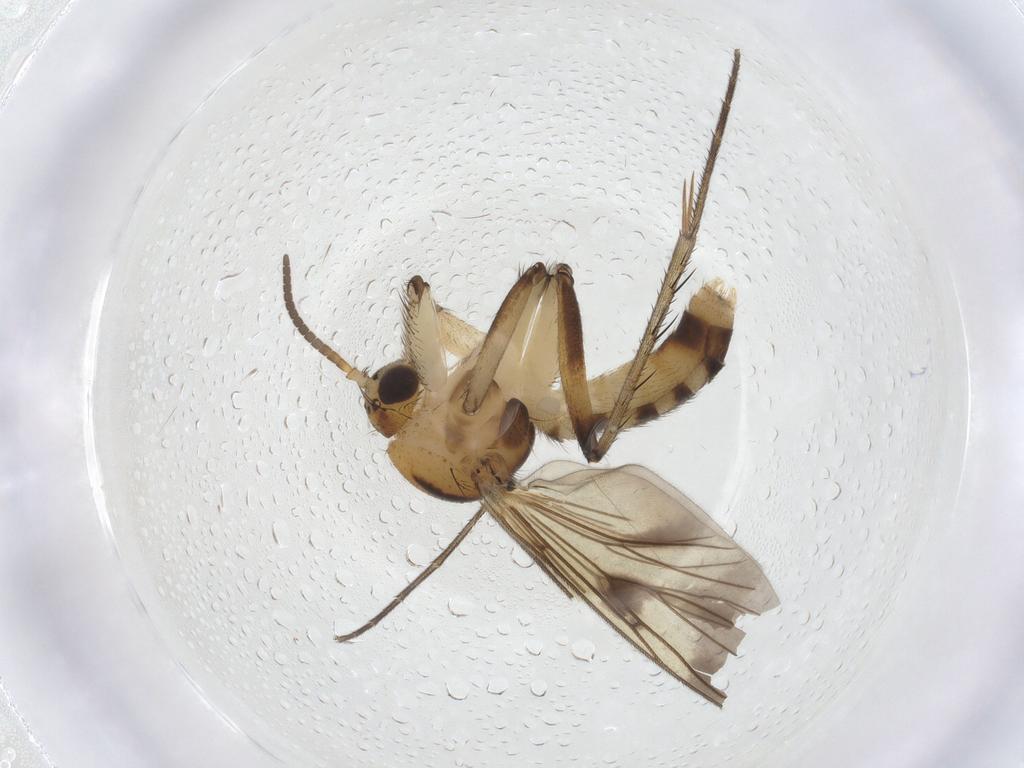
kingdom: Animalia
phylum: Arthropoda
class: Insecta
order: Diptera
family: Mycetophilidae
